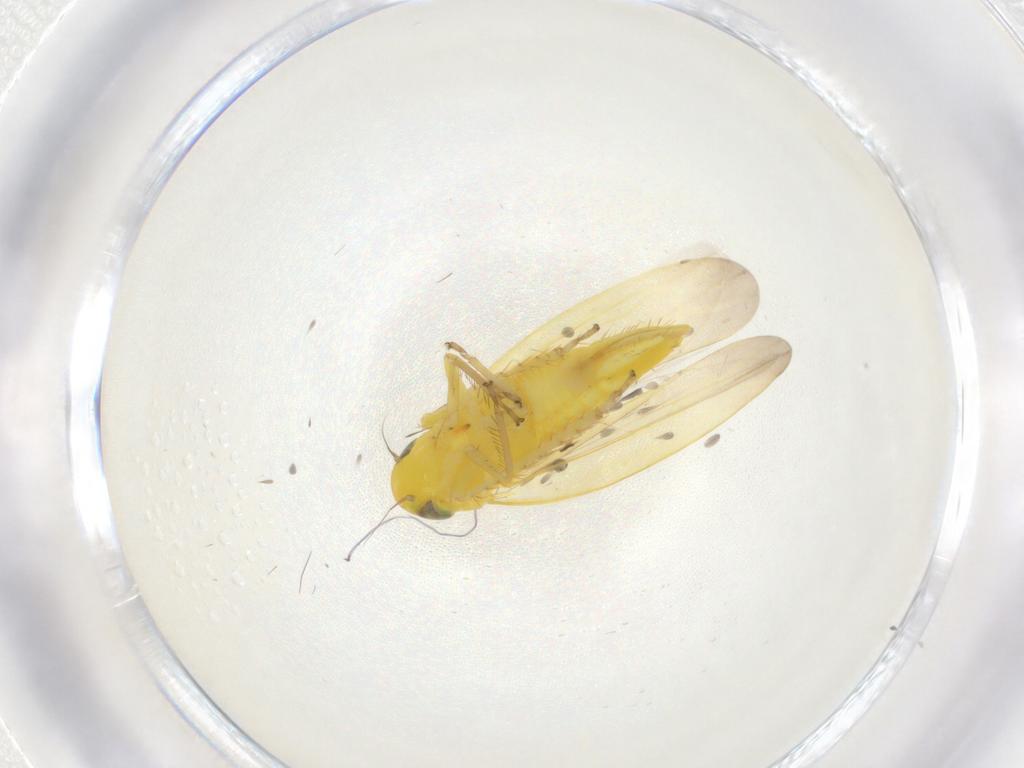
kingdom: Animalia
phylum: Arthropoda
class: Insecta
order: Hemiptera
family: Cicadellidae
